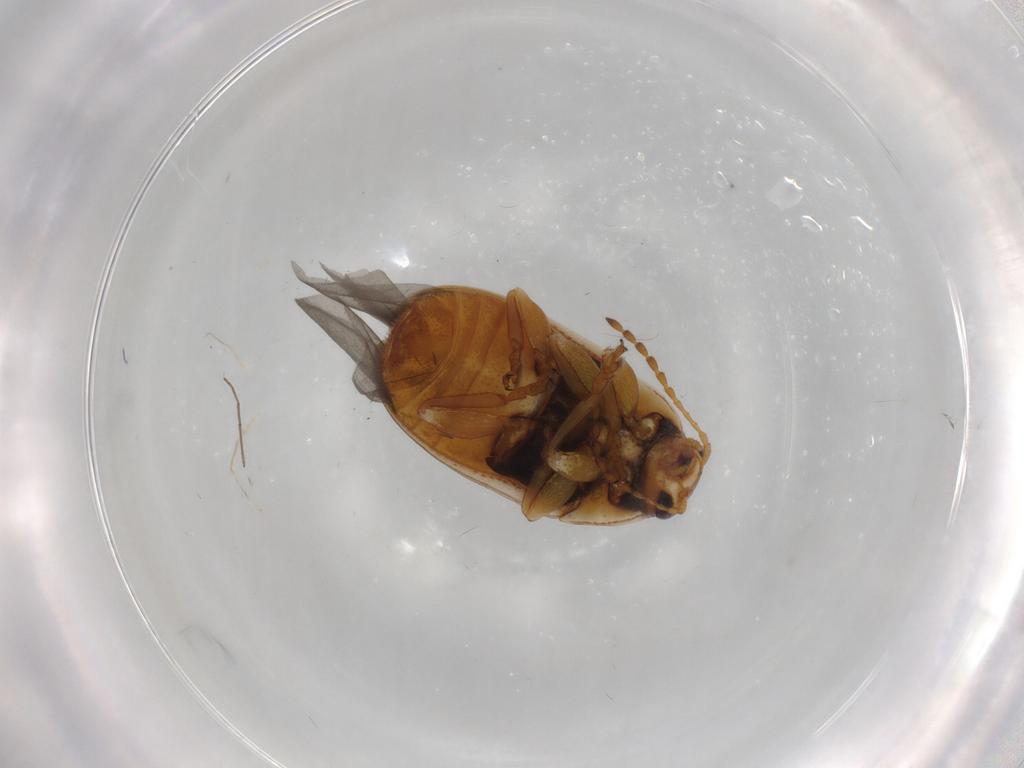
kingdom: Animalia
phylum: Arthropoda
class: Insecta
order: Coleoptera
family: Chrysomelidae
